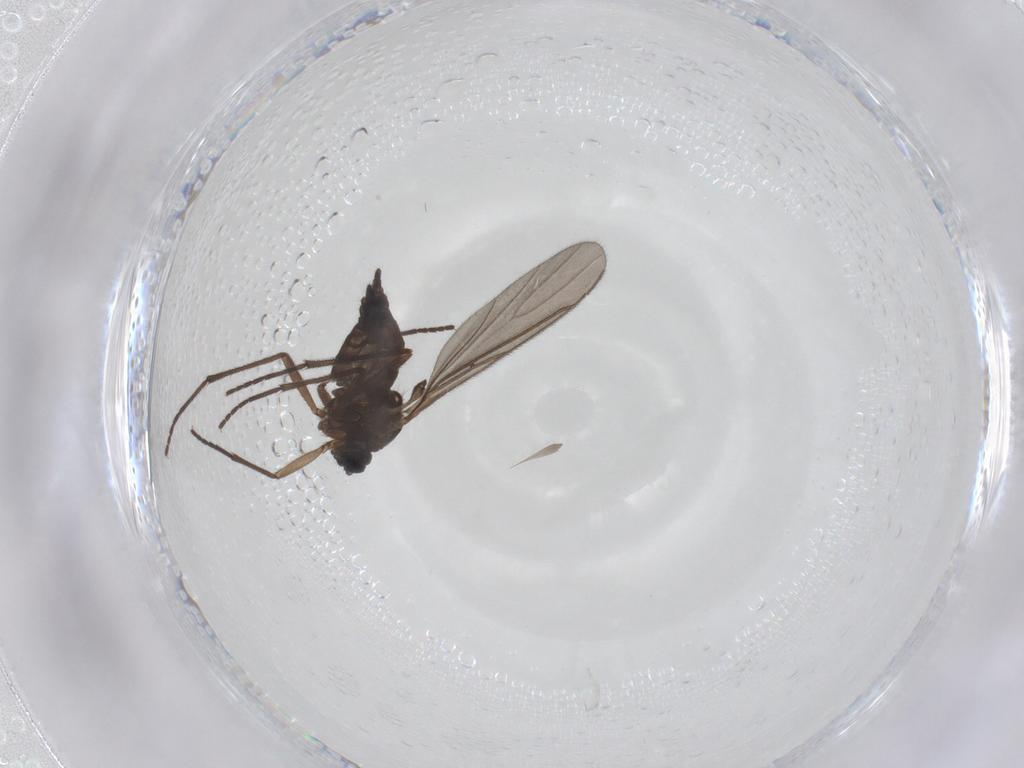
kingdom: Animalia
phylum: Arthropoda
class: Insecta
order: Diptera
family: Sciaridae
